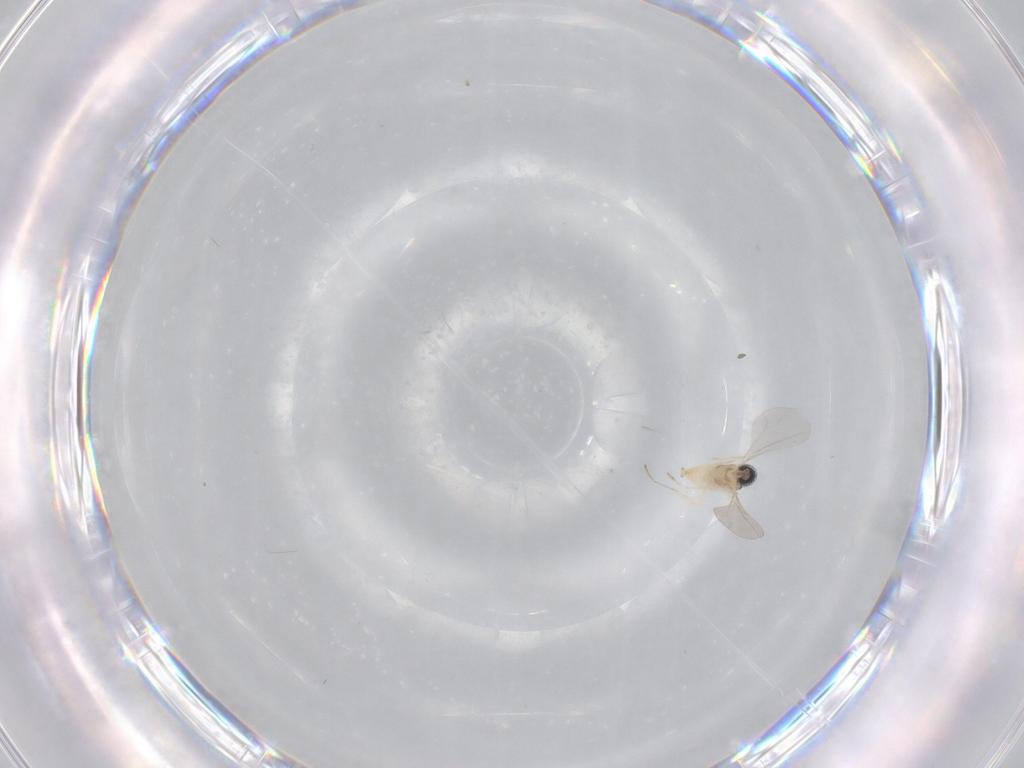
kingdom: Animalia
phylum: Arthropoda
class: Insecta
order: Diptera
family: Cecidomyiidae
